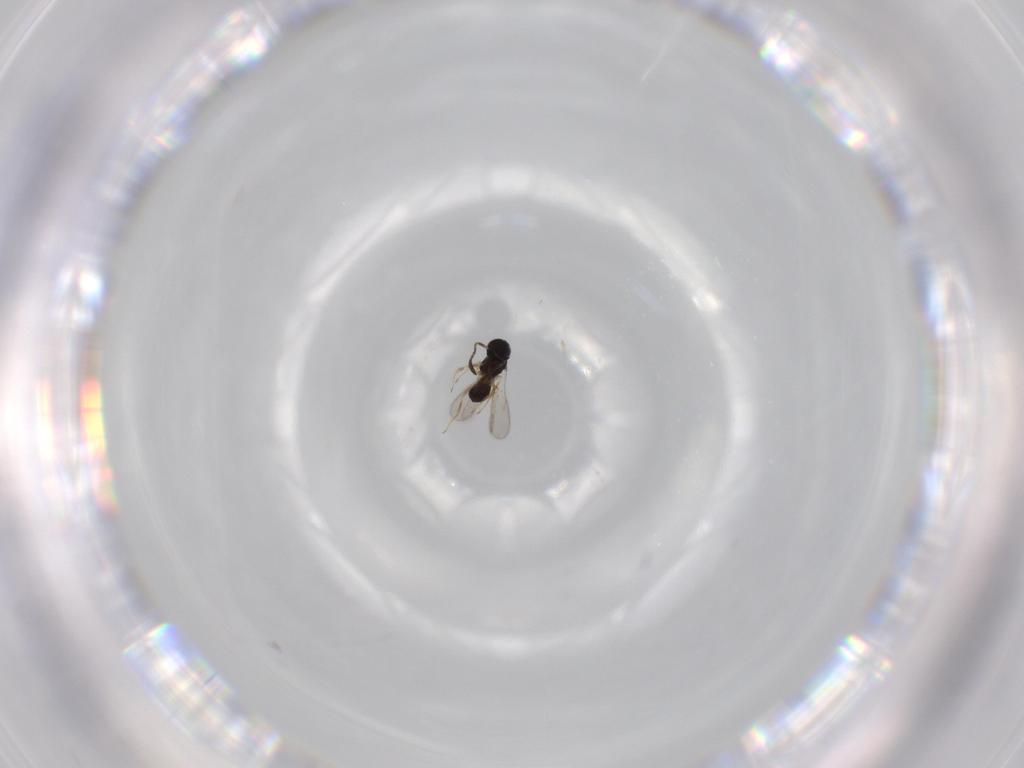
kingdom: Animalia
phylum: Arthropoda
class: Insecta
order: Hymenoptera
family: Scelionidae
